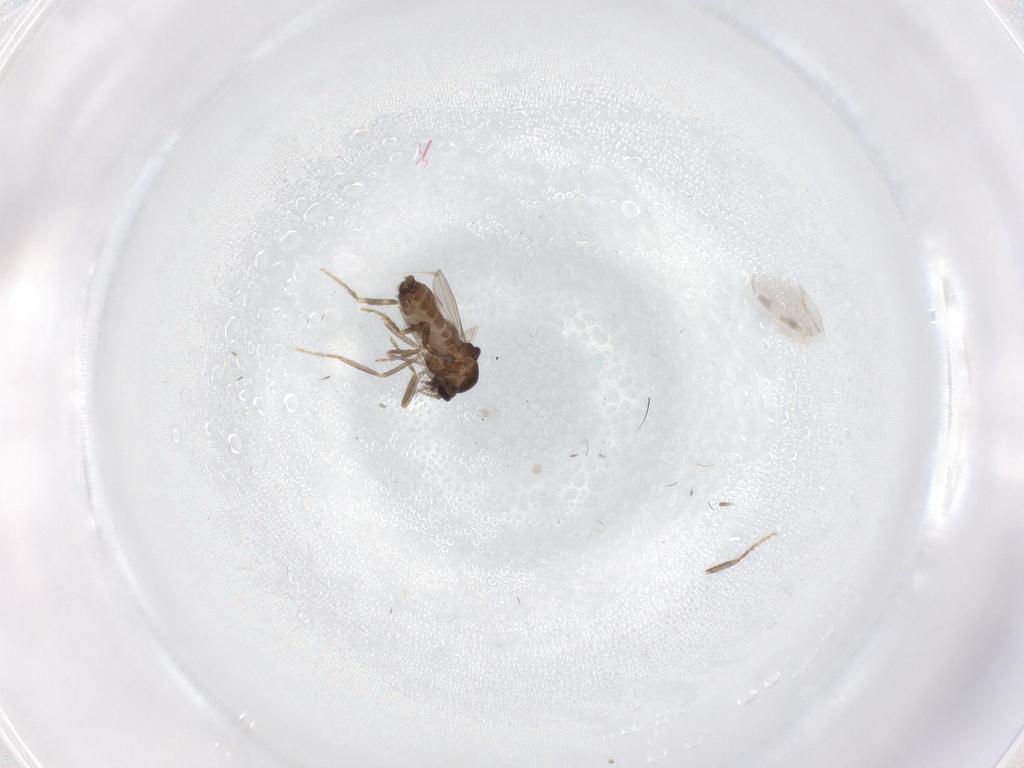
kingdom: Animalia
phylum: Arthropoda
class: Insecta
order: Diptera
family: Ceratopogonidae
